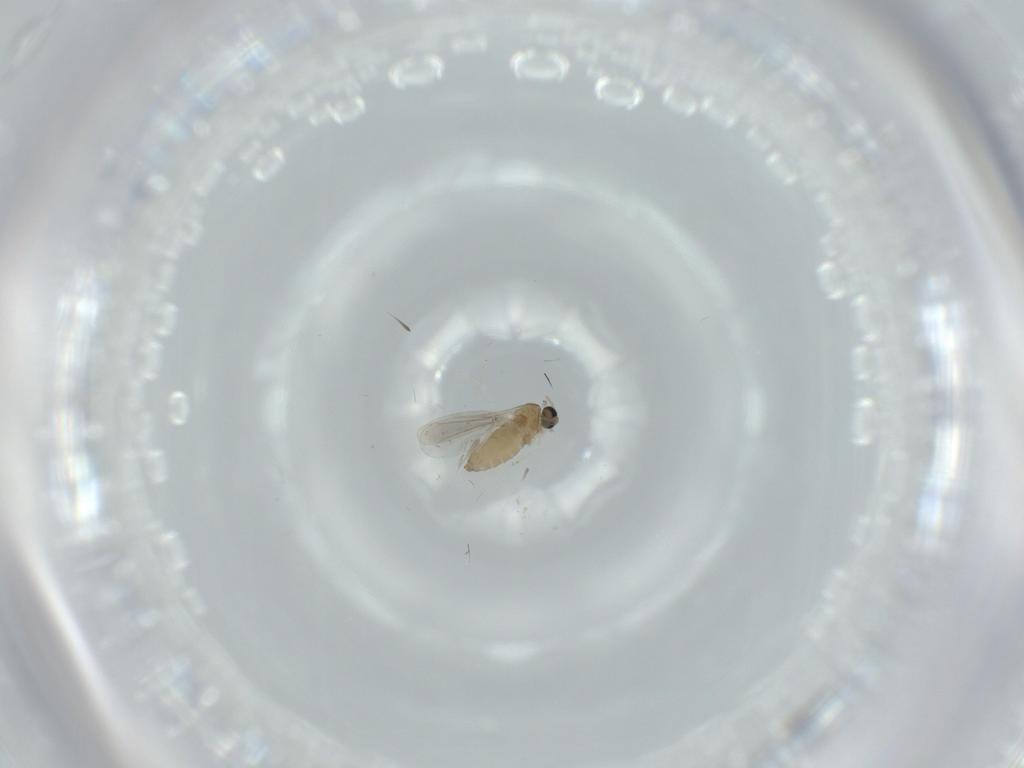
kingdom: Animalia
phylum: Arthropoda
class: Insecta
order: Diptera
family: Cecidomyiidae
